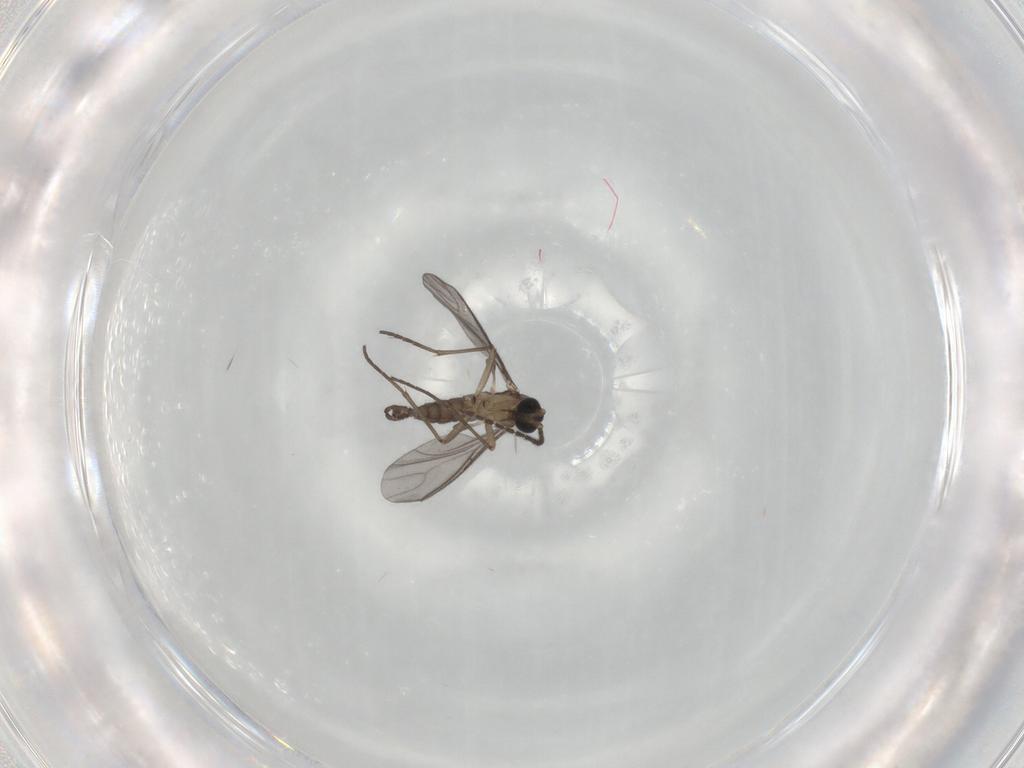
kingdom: Animalia
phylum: Arthropoda
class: Insecta
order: Diptera
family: Sciaridae
